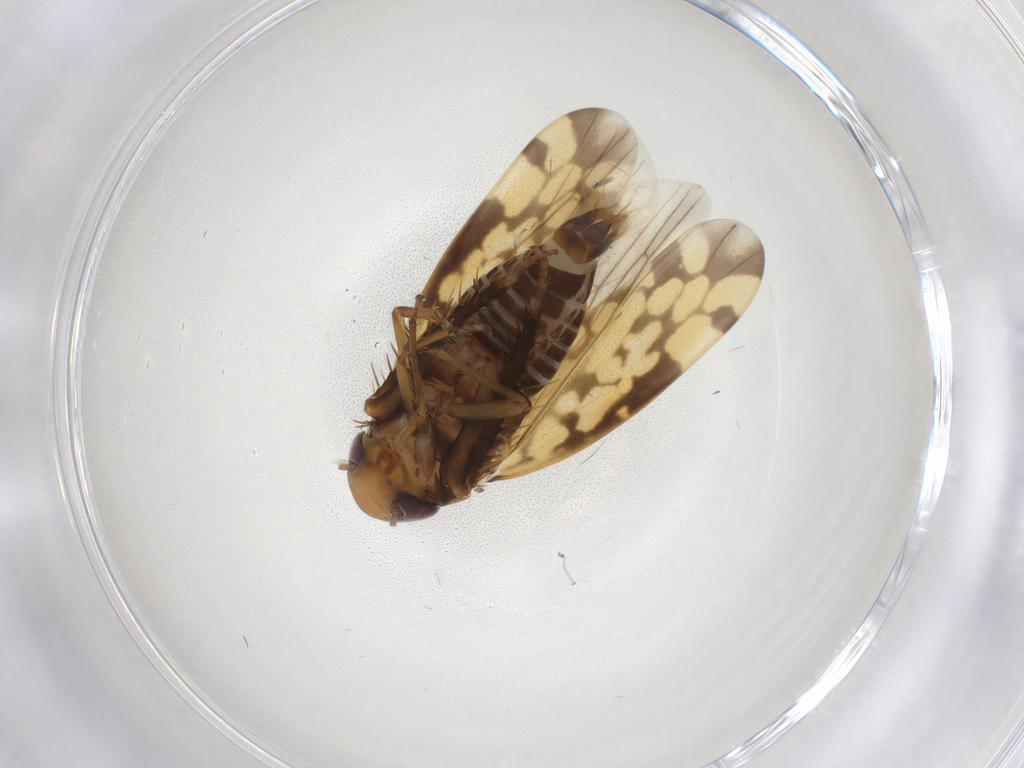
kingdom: Animalia
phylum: Arthropoda
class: Insecta
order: Hemiptera
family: Cicadellidae
